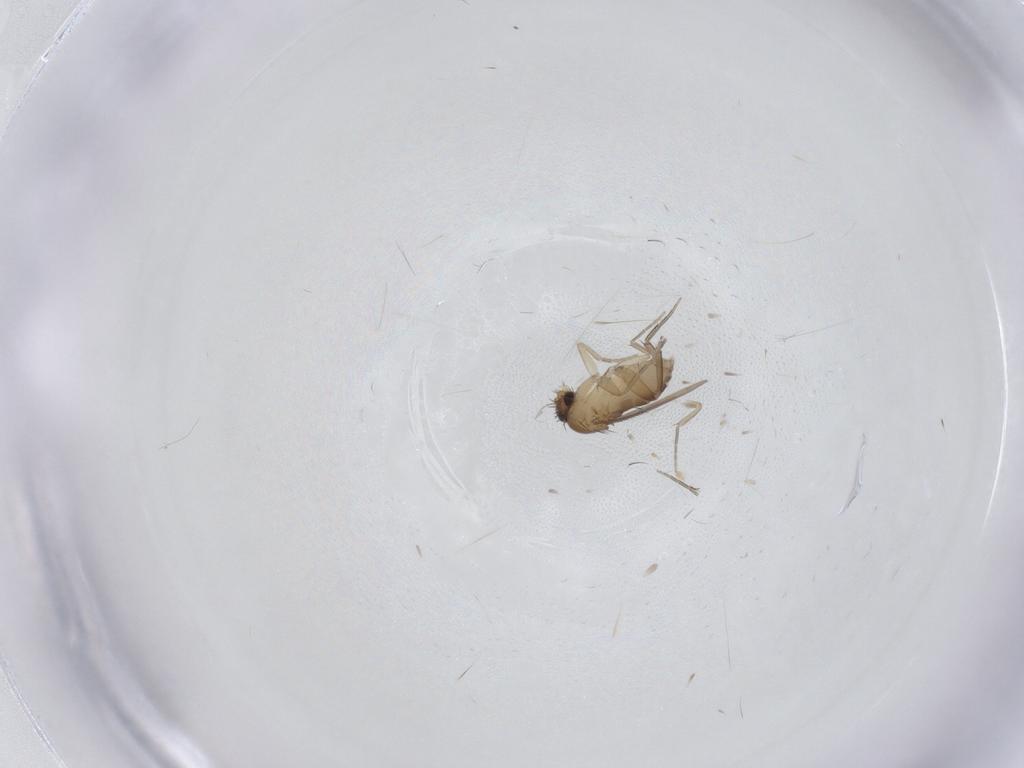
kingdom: Animalia
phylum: Arthropoda
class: Insecta
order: Diptera
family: Phoridae
